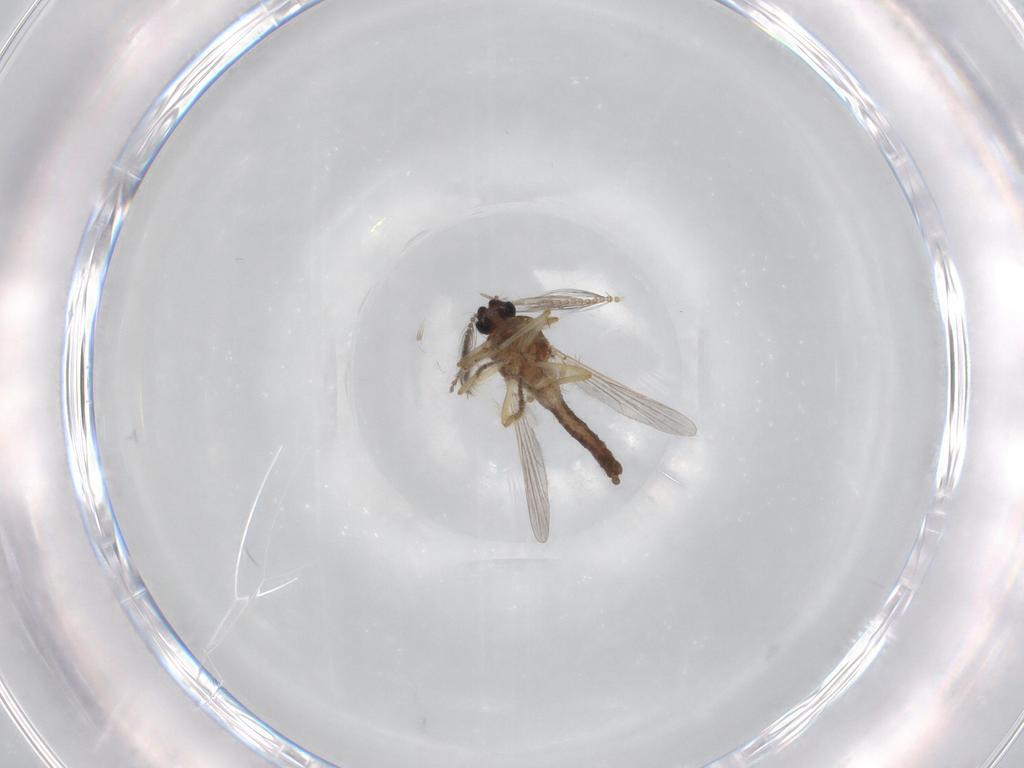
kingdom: Animalia
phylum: Arthropoda
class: Insecta
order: Diptera
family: Ceratopogonidae
